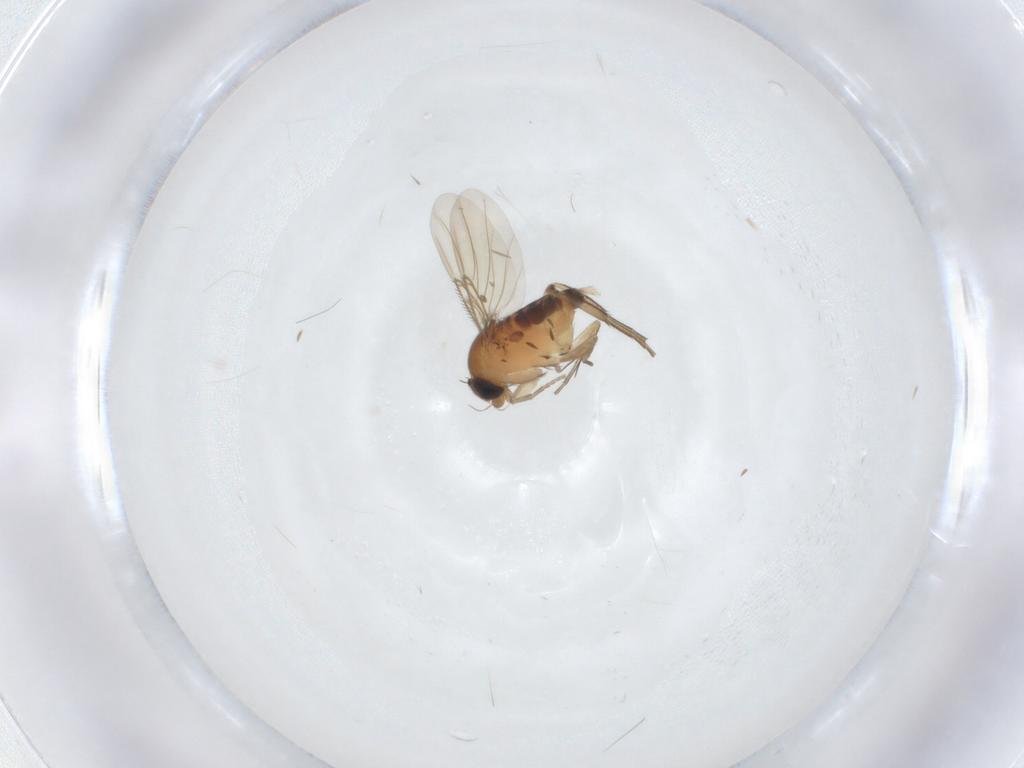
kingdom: Animalia
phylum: Arthropoda
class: Insecta
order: Diptera
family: Phoridae
